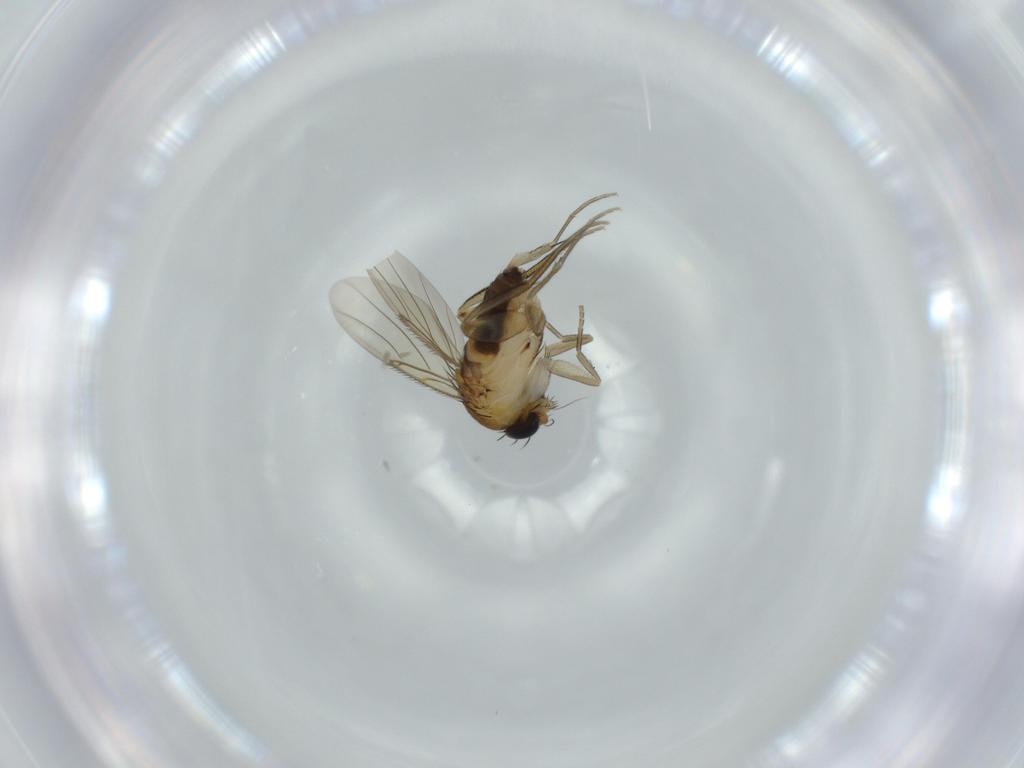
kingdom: Animalia
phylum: Arthropoda
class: Insecta
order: Diptera
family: Phoridae
